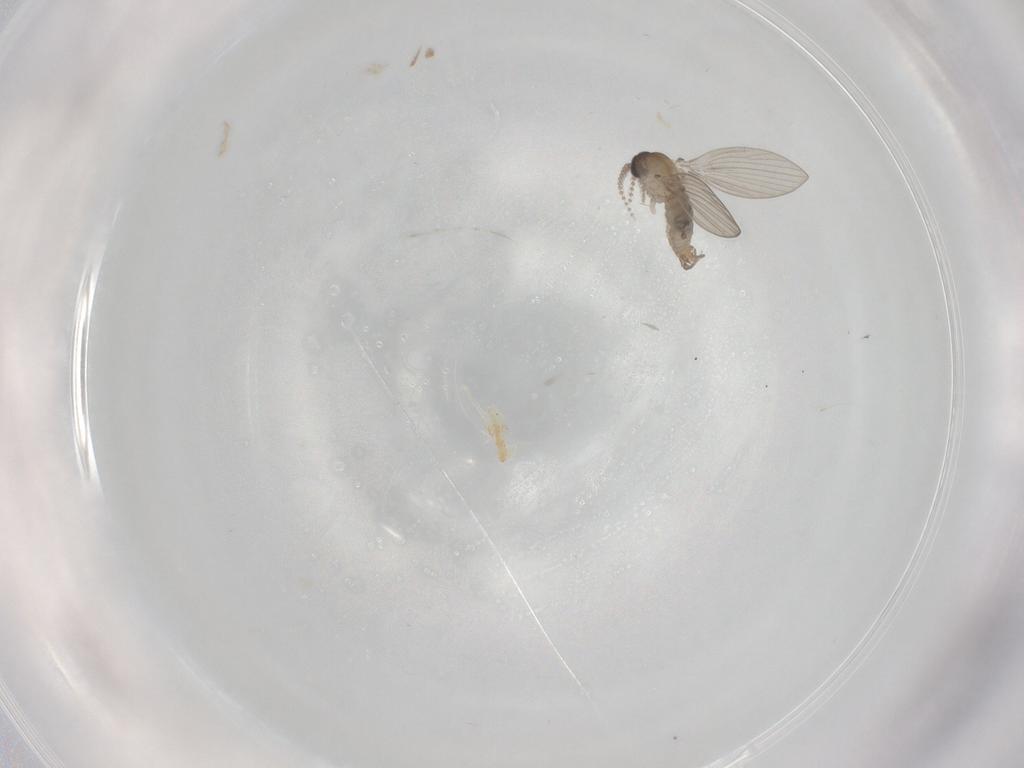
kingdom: Animalia
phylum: Arthropoda
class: Insecta
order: Diptera
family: Psychodidae
